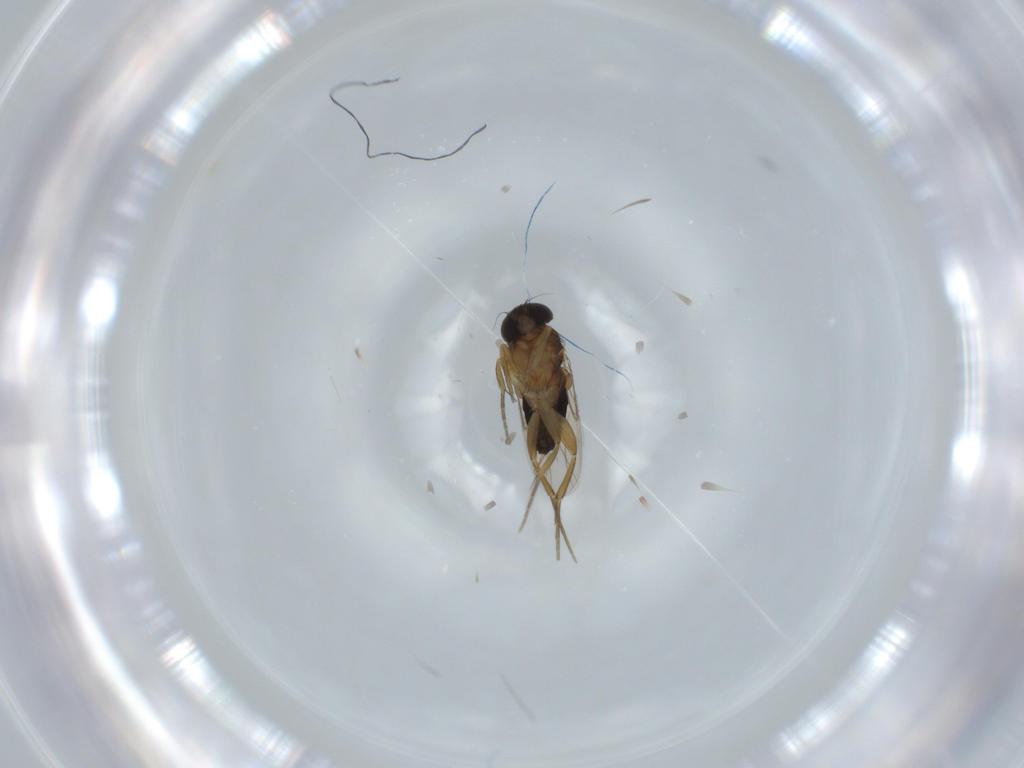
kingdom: Animalia
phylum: Arthropoda
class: Insecta
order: Diptera
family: Phoridae
